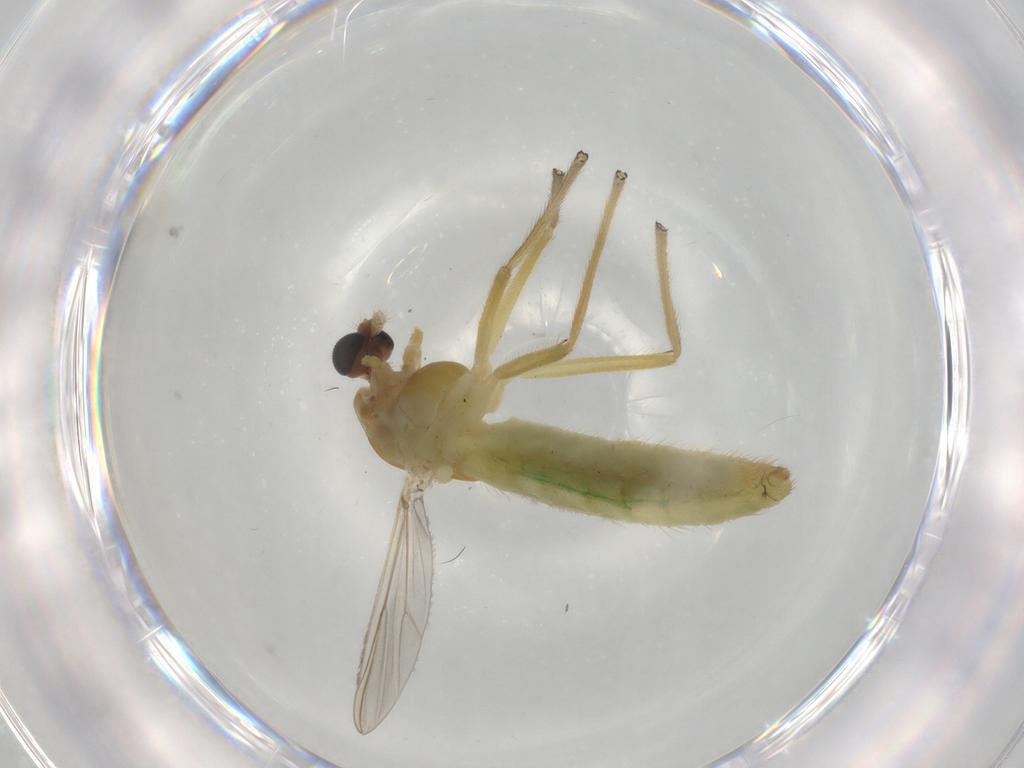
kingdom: Animalia
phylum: Arthropoda
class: Insecta
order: Diptera
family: Chironomidae
